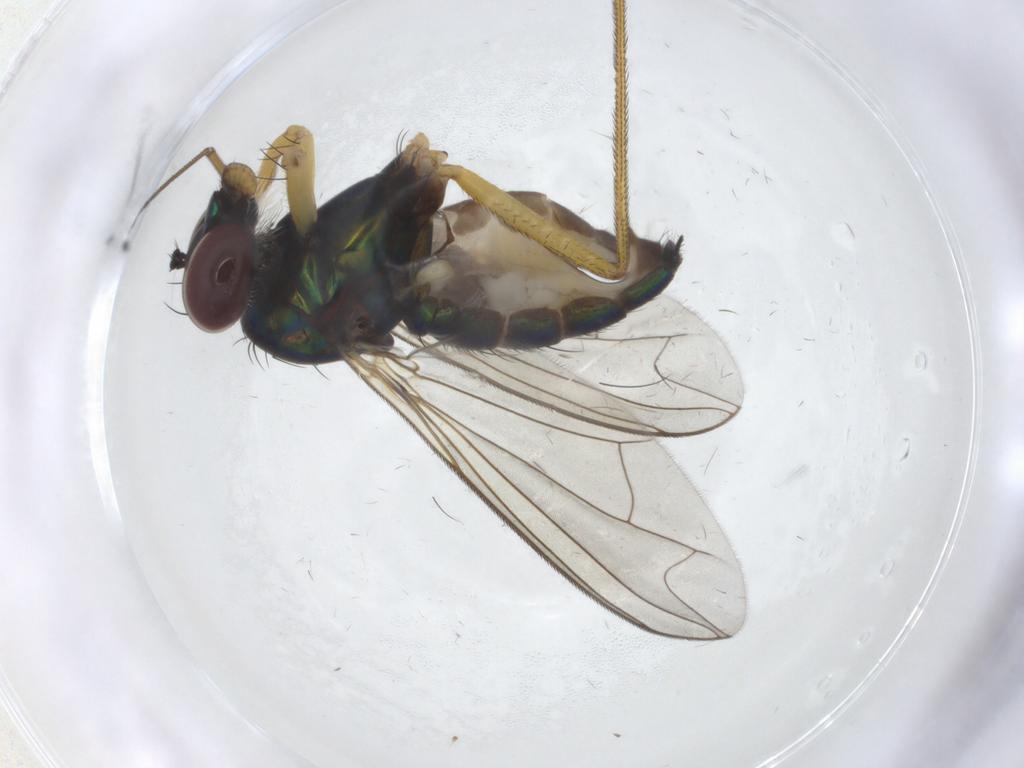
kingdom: Animalia
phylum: Arthropoda
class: Insecta
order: Diptera
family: Dolichopodidae
